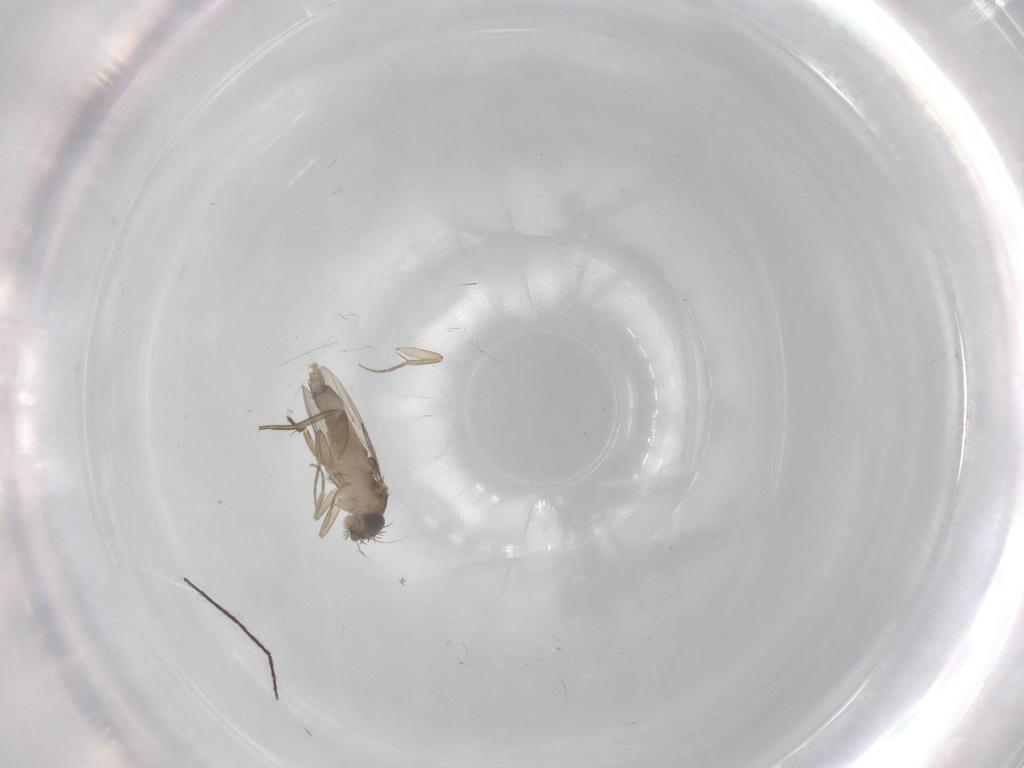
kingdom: Animalia
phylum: Arthropoda
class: Insecta
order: Diptera
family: Phoridae
